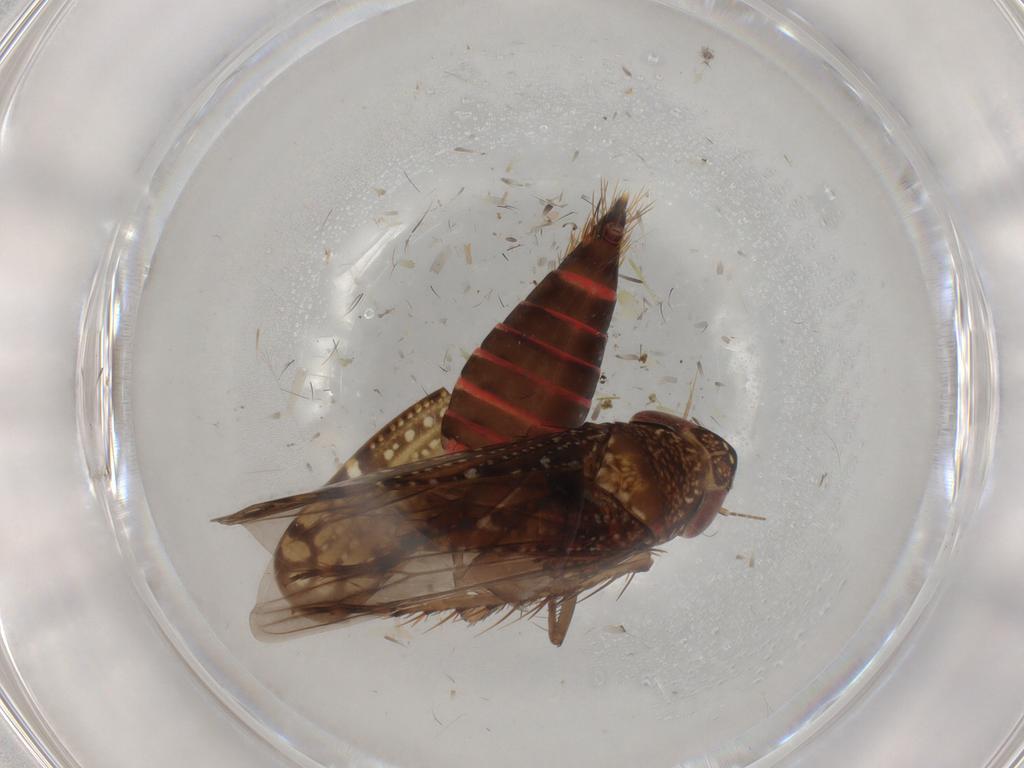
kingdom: Animalia
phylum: Arthropoda
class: Insecta
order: Hemiptera
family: Cicadellidae
